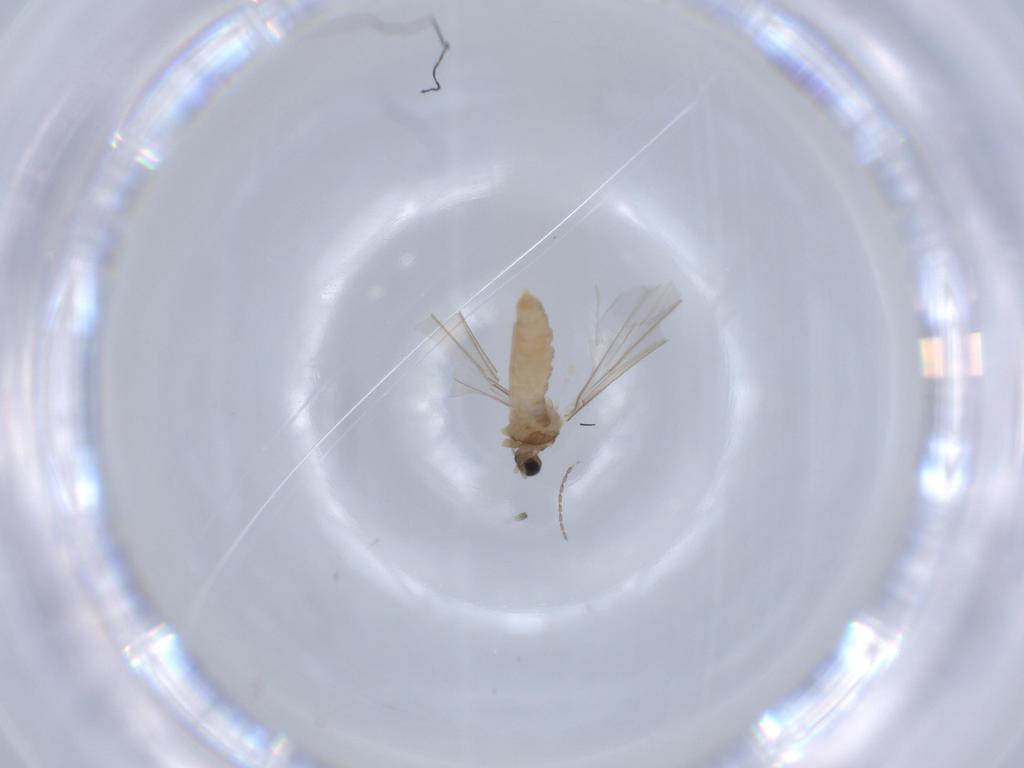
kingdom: Animalia
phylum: Arthropoda
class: Insecta
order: Diptera
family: Cecidomyiidae
